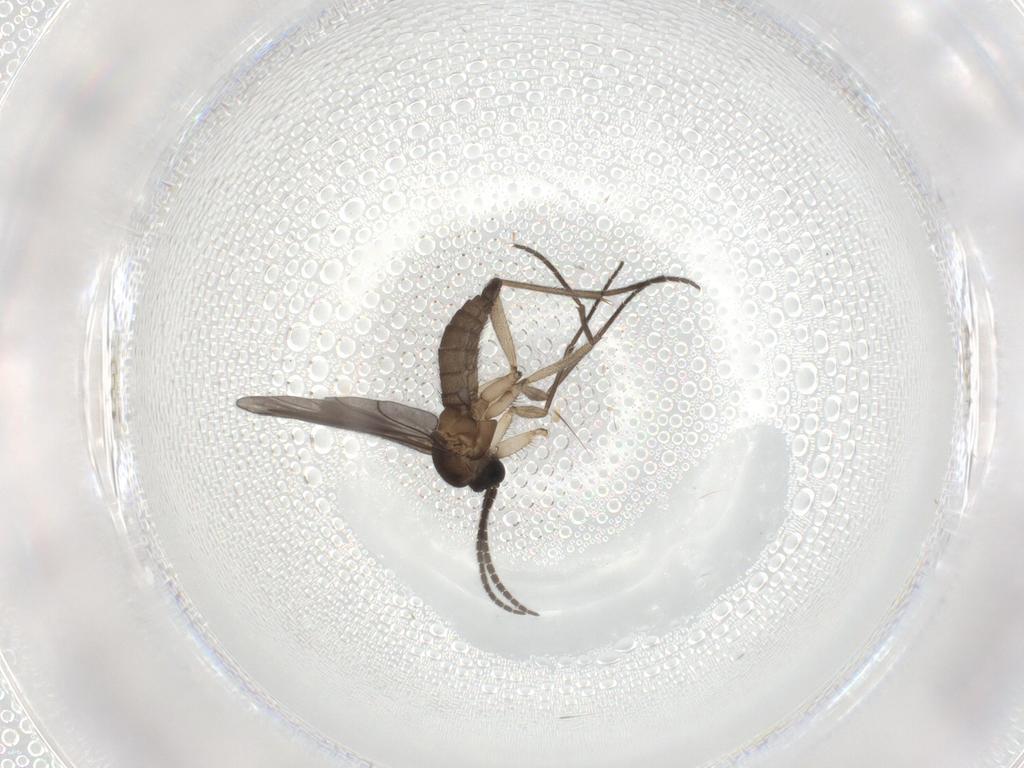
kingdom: Animalia
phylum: Arthropoda
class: Insecta
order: Diptera
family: Sciaridae
